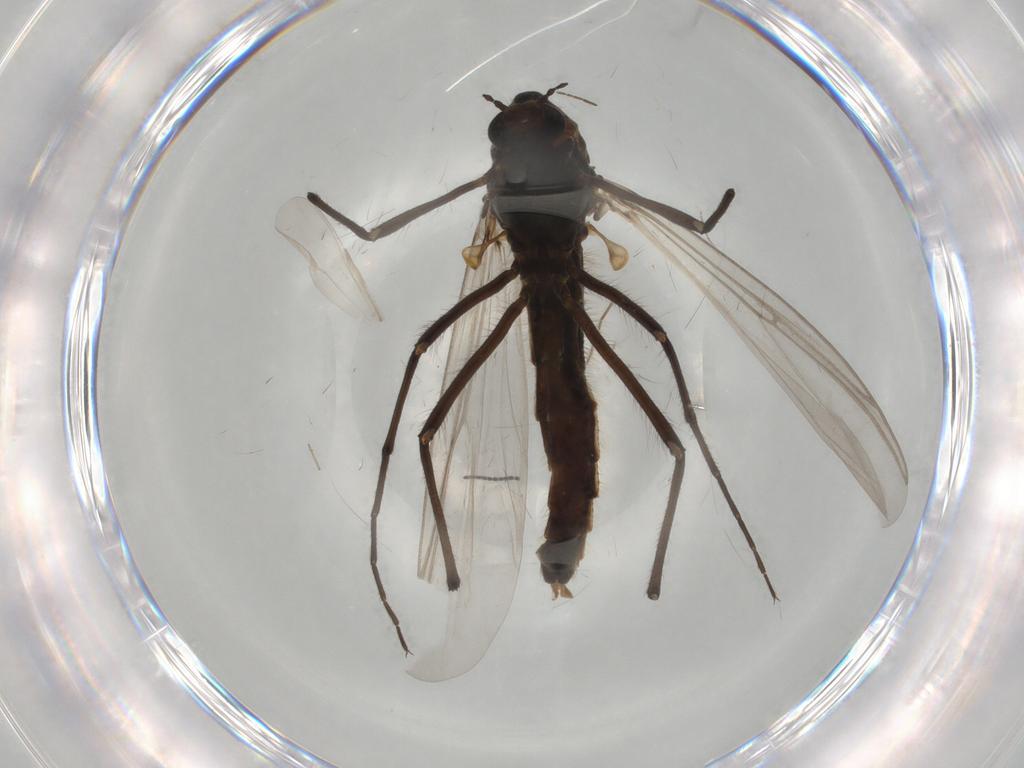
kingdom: Animalia
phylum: Arthropoda
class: Insecta
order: Diptera
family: Chironomidae
